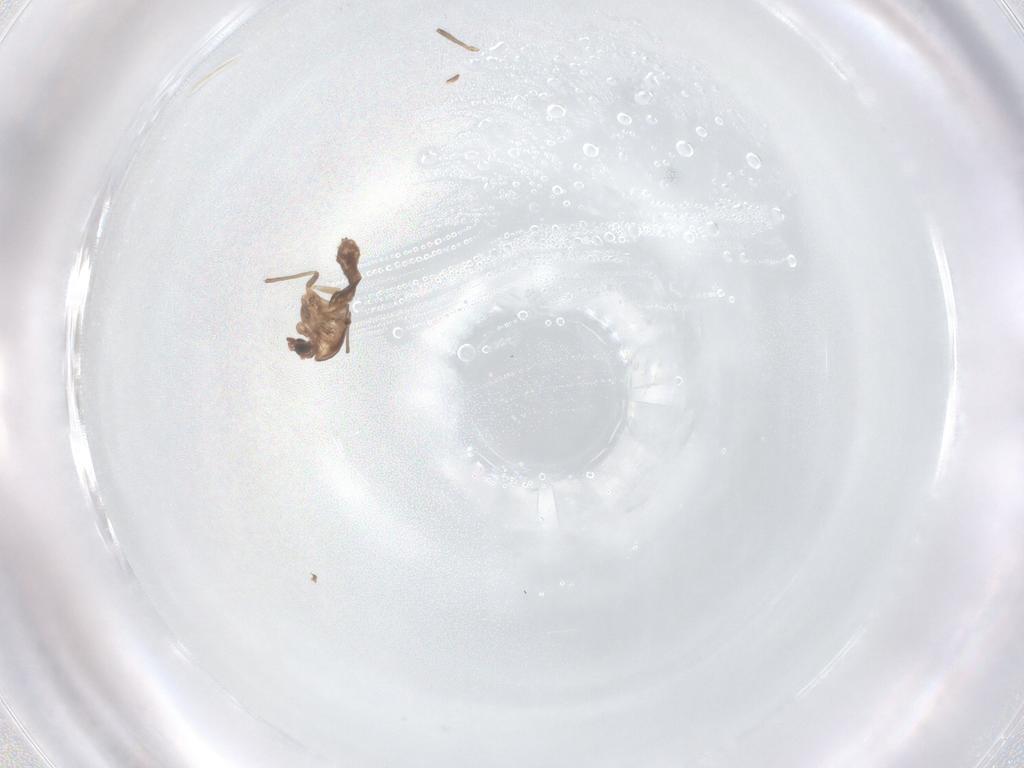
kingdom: Animalia
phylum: Arthropoda
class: Insecta
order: Diptera
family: Chironomidae
